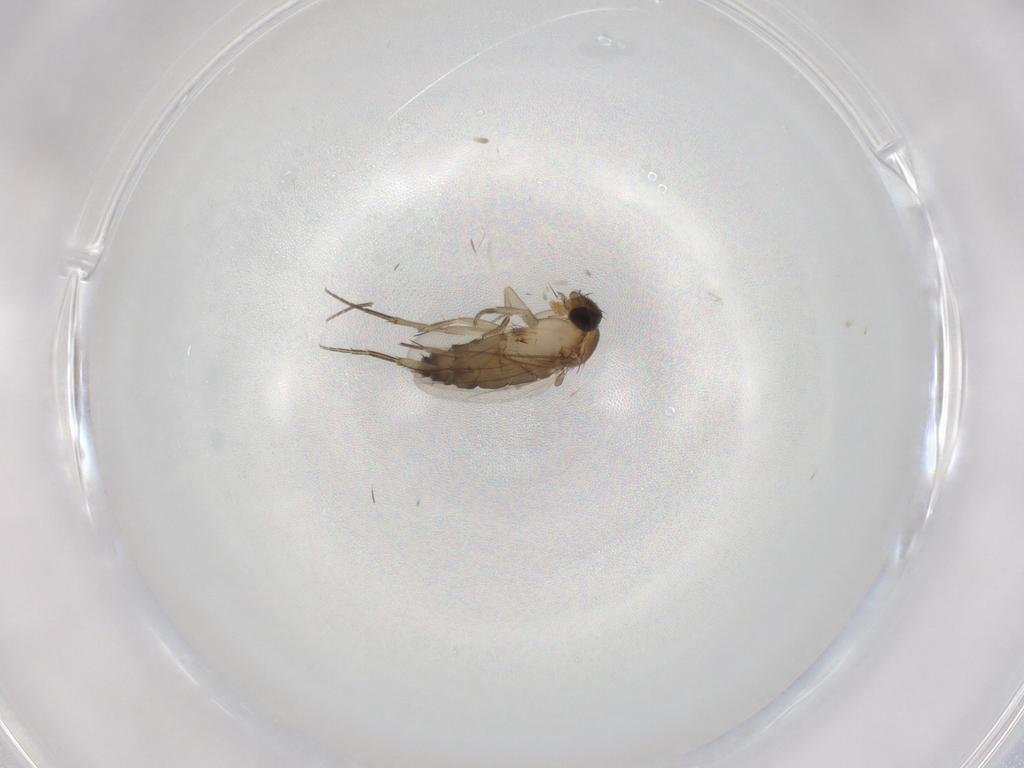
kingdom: Animalia
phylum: Arthropoda
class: Insecta
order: Diptera
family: Phoridae
